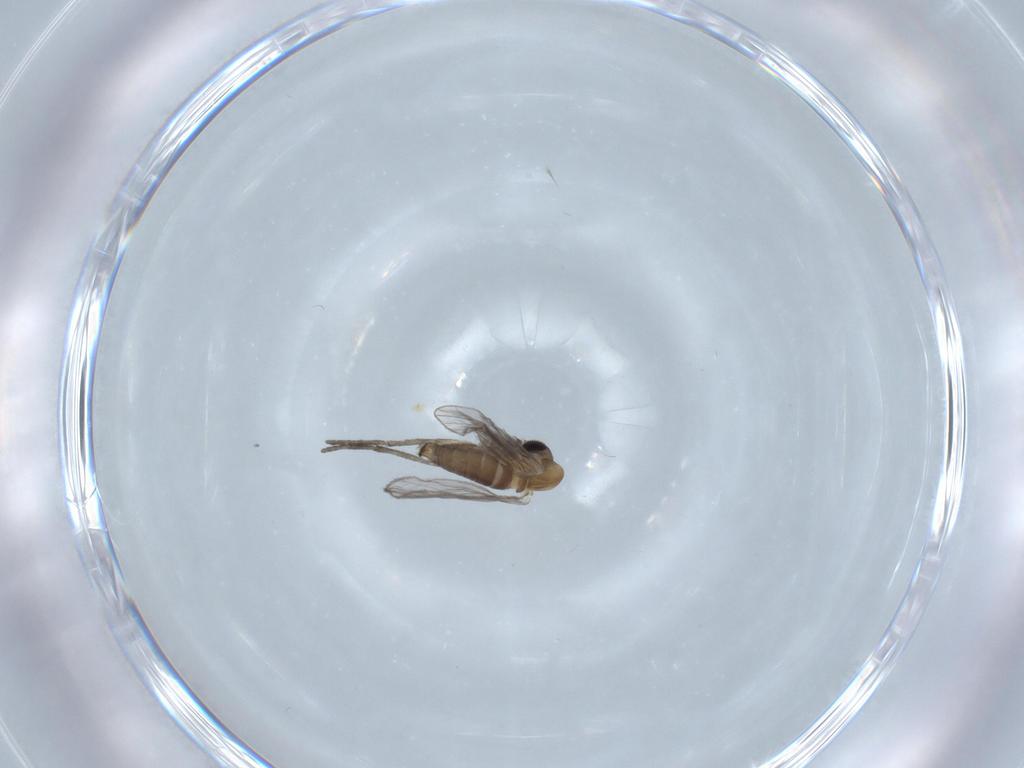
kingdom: Animalia
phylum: Arthropoda
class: Insecta
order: Diptera
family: Psychodidae
